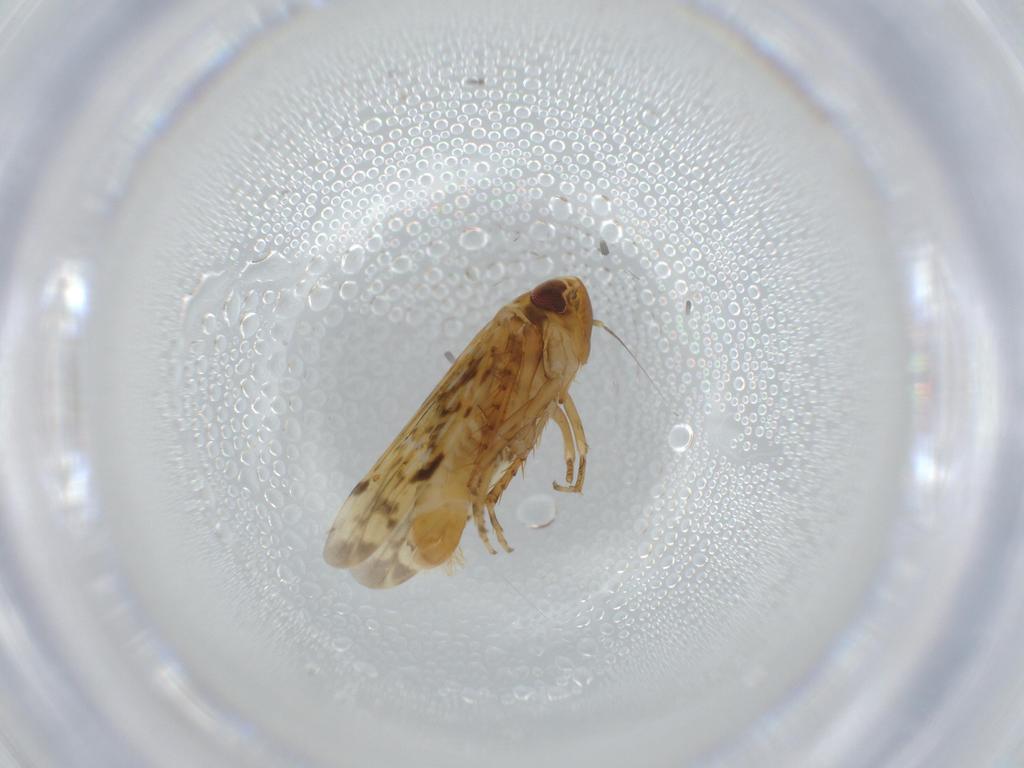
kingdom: Animalia
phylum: Arthropoda
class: Insecta
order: Hemiptera
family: Cicadellidae
